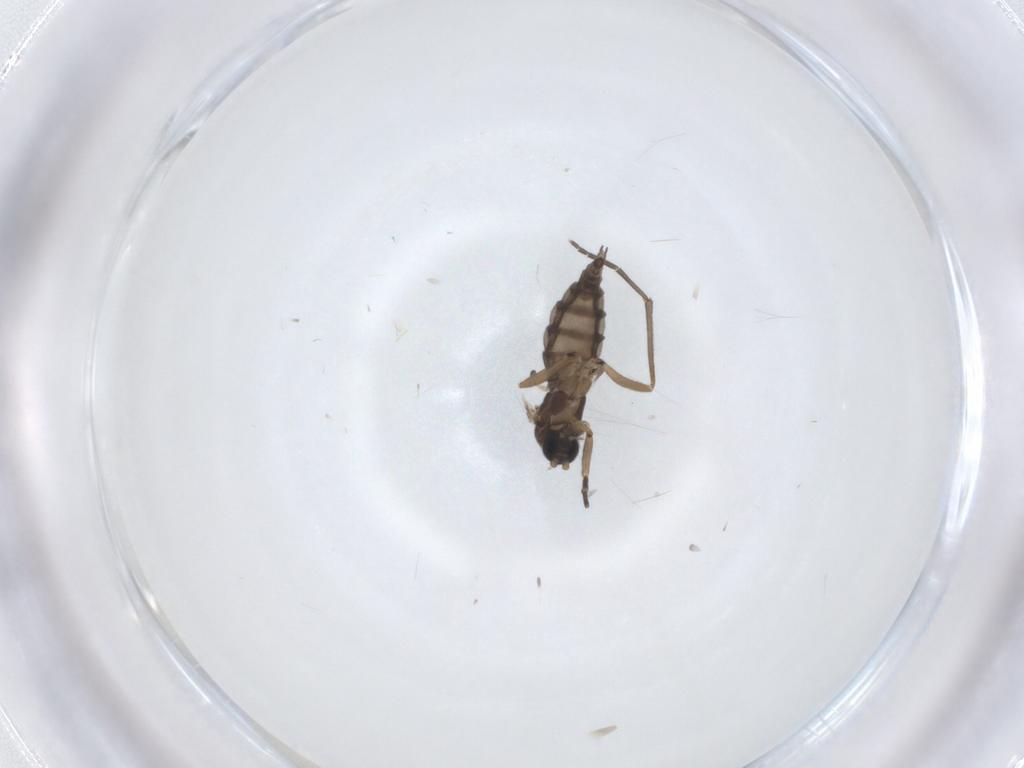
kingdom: Animalia
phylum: Arthropoda
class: Insecta
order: Diptera
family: Sciaridae
